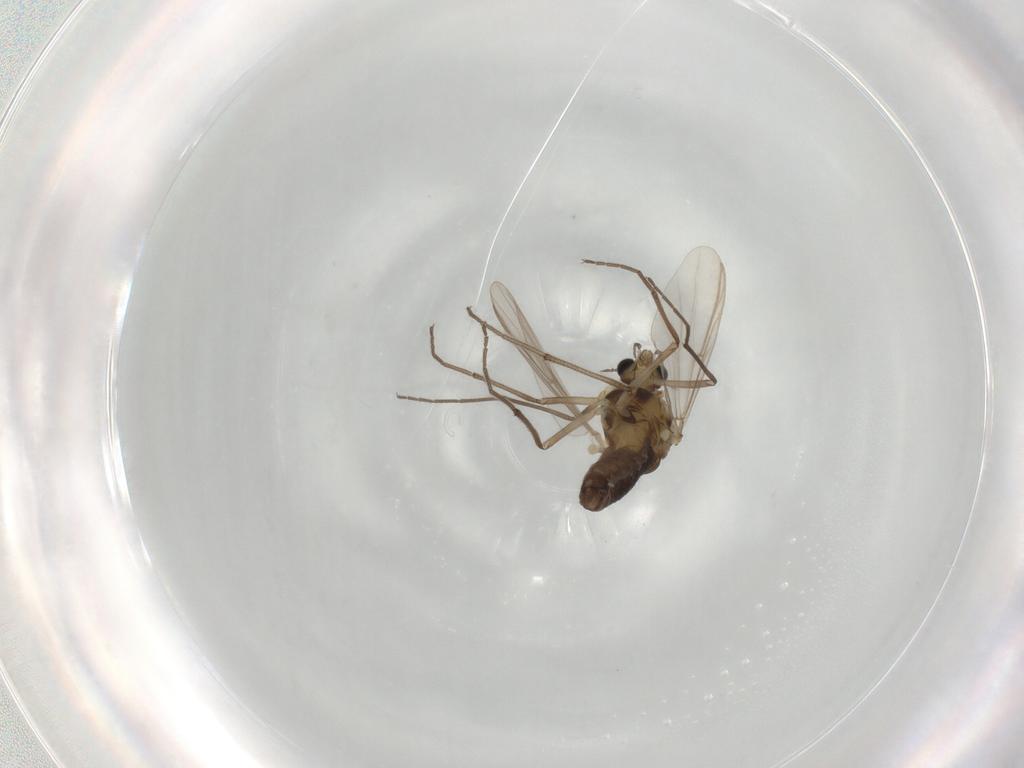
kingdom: Animalia
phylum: Arthropoda
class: Insecta
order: Diptera
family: Chironomidae
